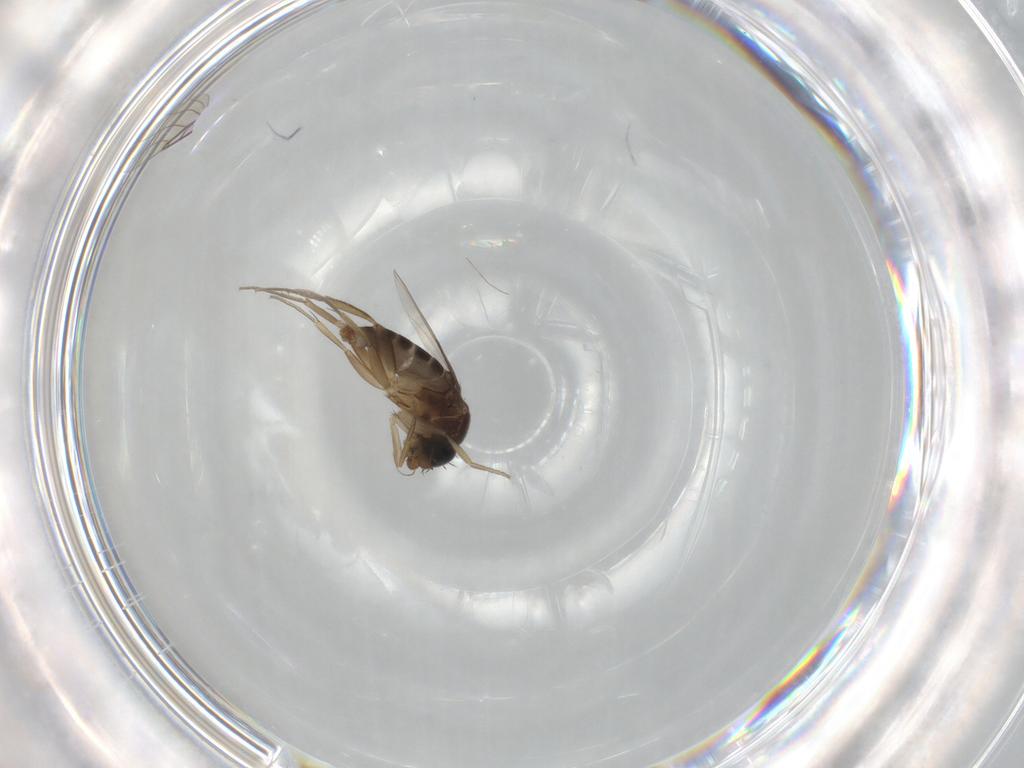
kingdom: Animalia
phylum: Arthropoda
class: Insecta
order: Diptera
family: Phoridae
